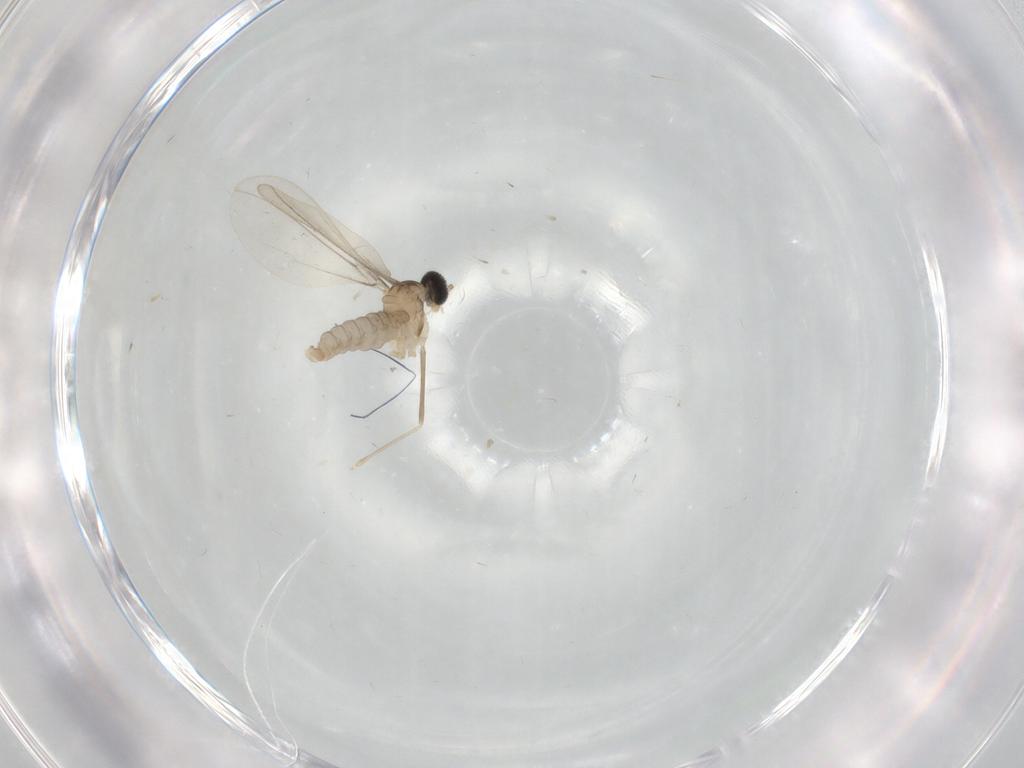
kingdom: Animalia
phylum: Arthropoda
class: Insecta
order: Diptera
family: Cecidomyiidae
